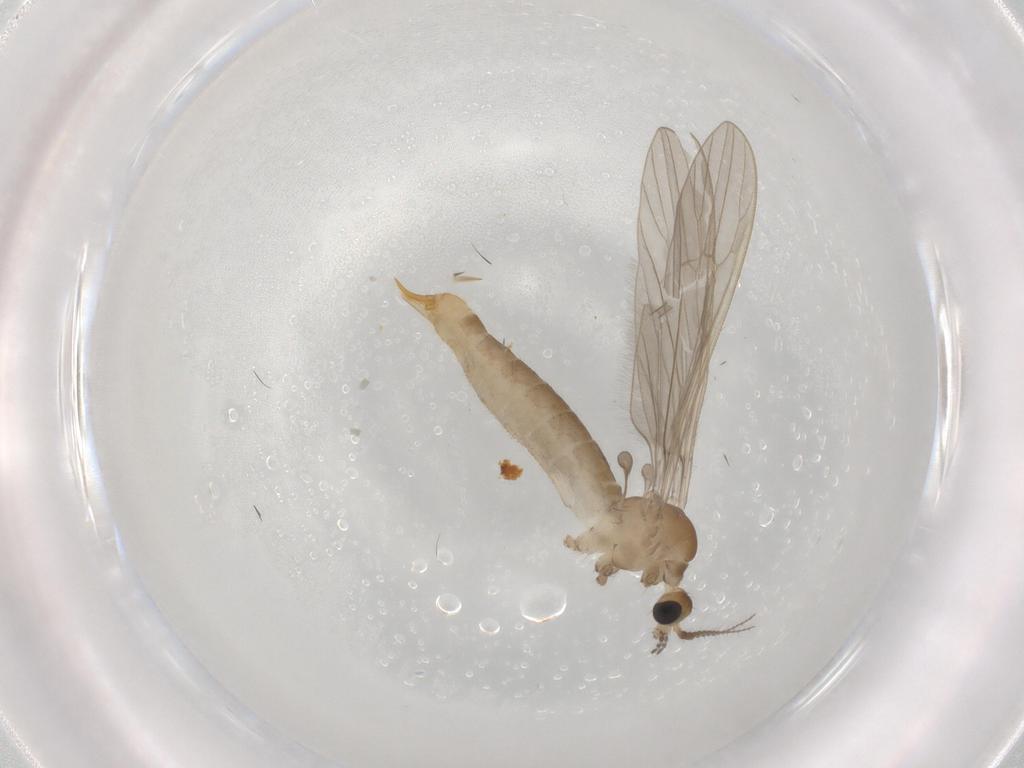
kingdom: Animalia
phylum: Arthropoda
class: Insecta
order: Diptera
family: Limoniidae
